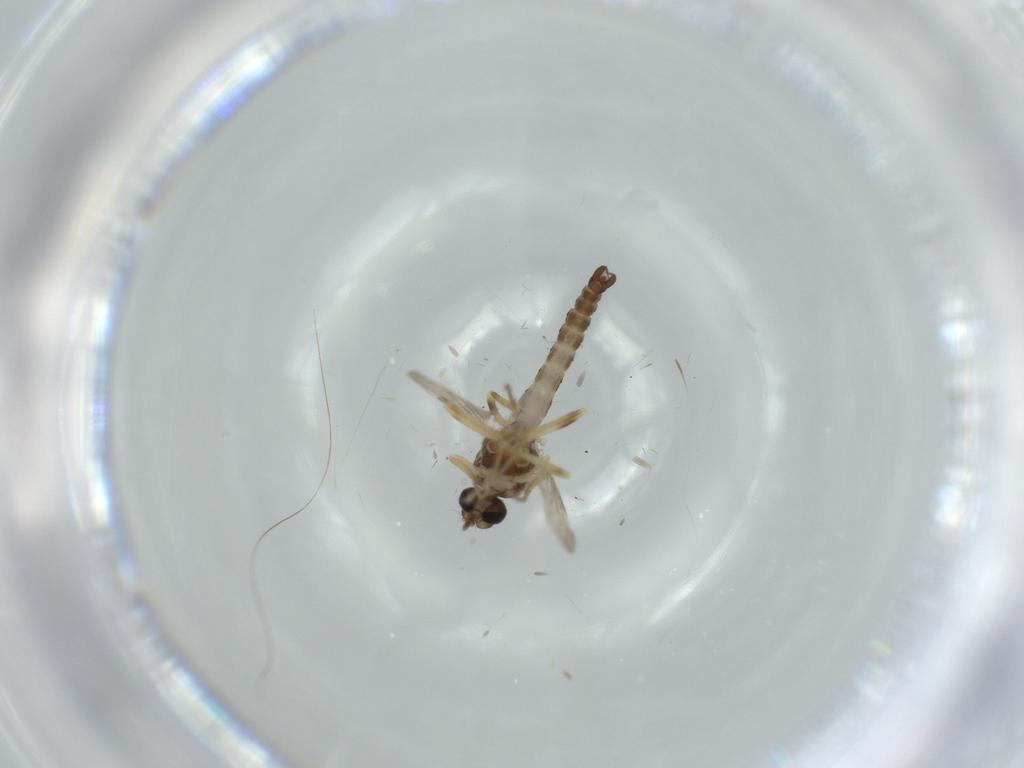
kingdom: Animalia
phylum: Arthropoda
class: Insecta
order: Diptera
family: Ceratopogonidae
